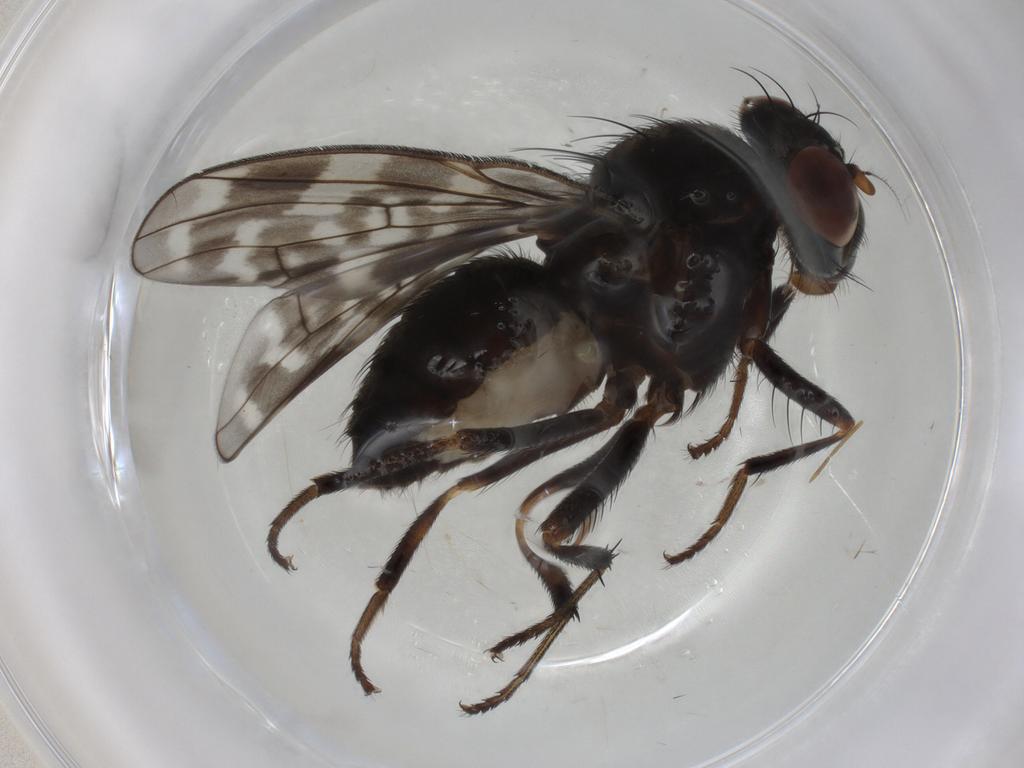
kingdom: Animalia
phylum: Arthropoda
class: Insecta
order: Diptera
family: Chironomidae
